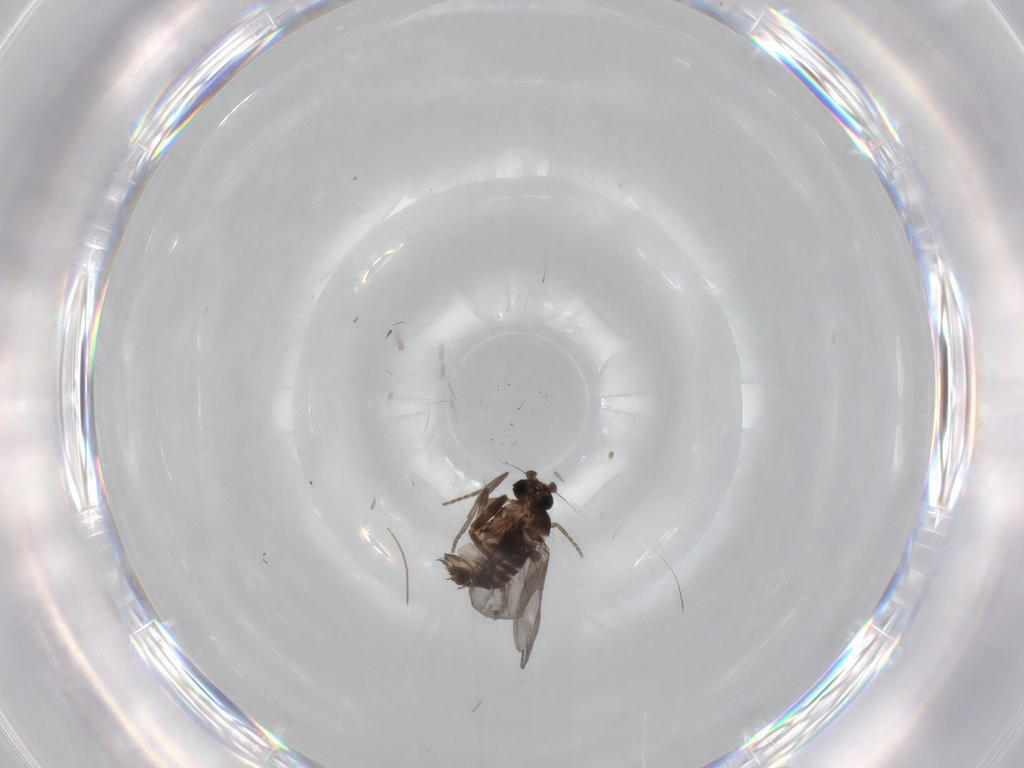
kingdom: Animalia
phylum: Arthropoda
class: Insecta
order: Diptera
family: Phoridae
